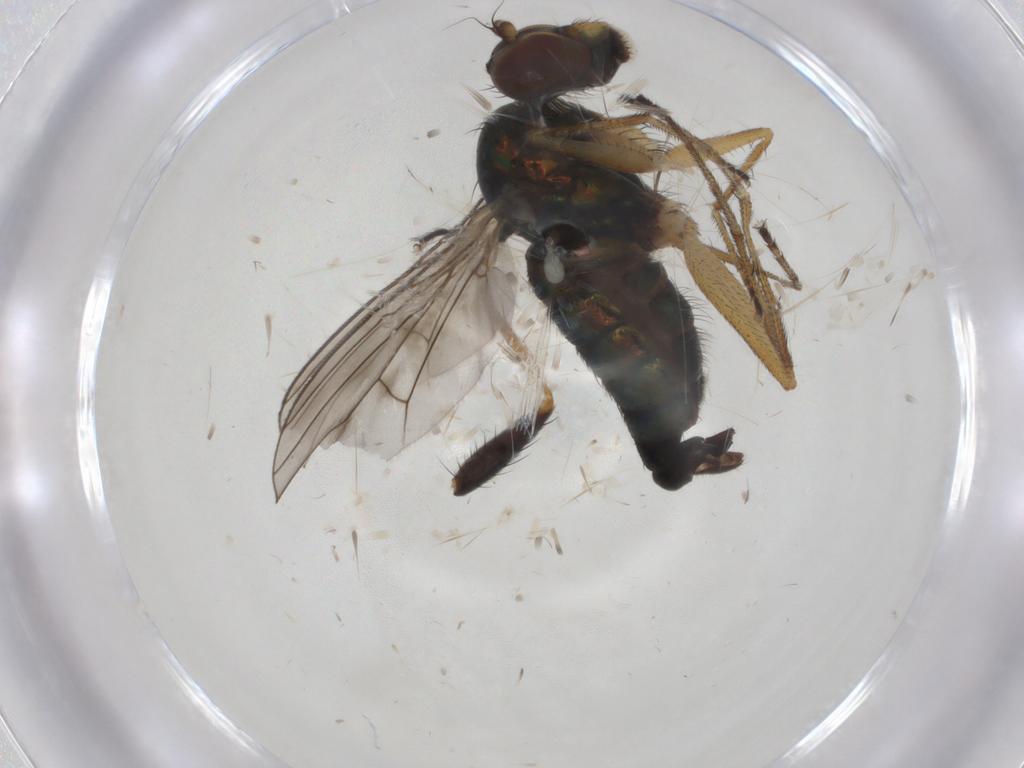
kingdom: Animalia
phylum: Arthropoda
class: Insecta
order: Diptera
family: Dolichopodidae
